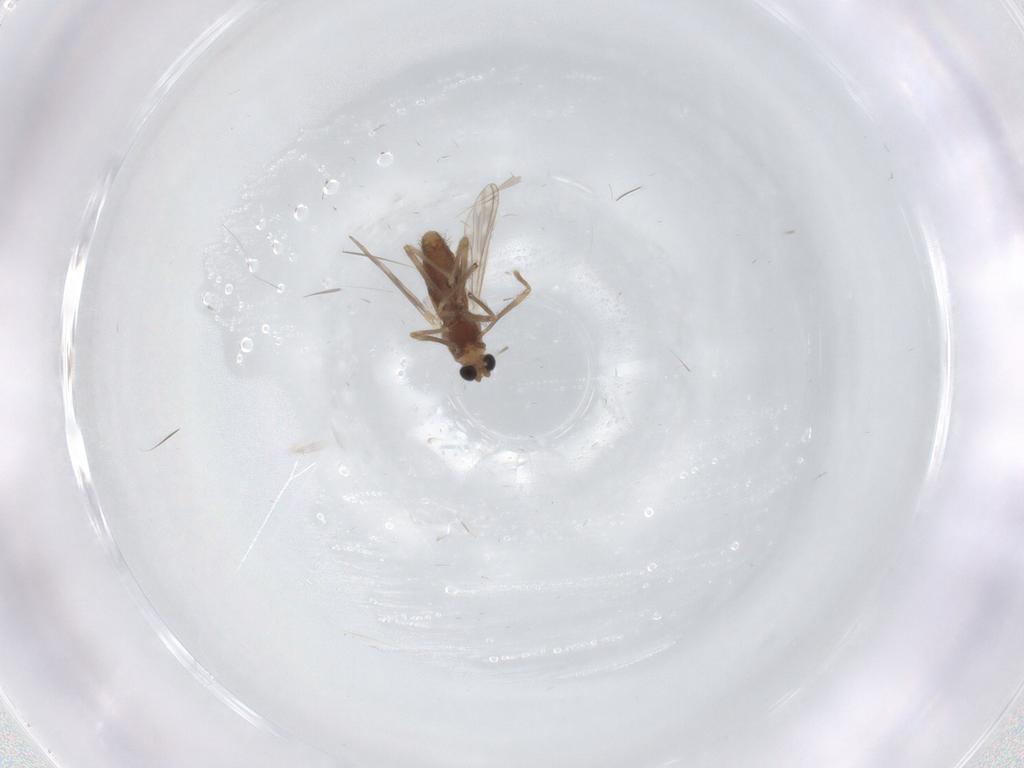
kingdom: Animalia
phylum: Arthropoda
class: Insecta
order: Diptera
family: Chironomidae
